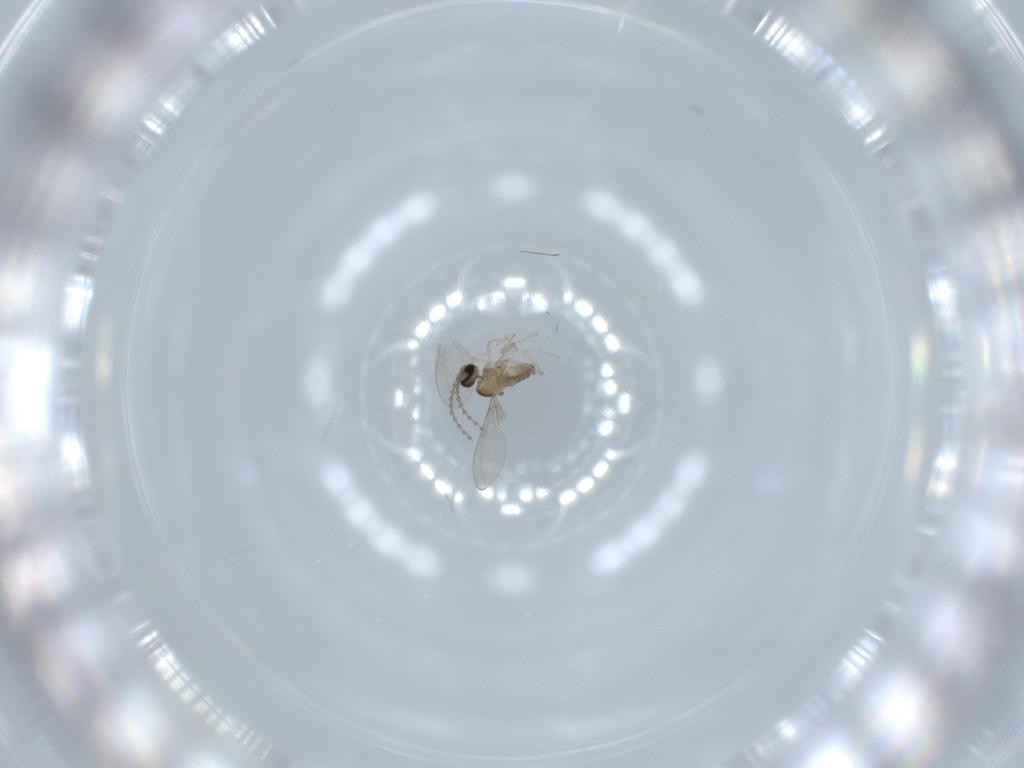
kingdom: Animalia
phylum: Arthropoda
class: Insecta
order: Diptera
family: Cecidomyiidae
